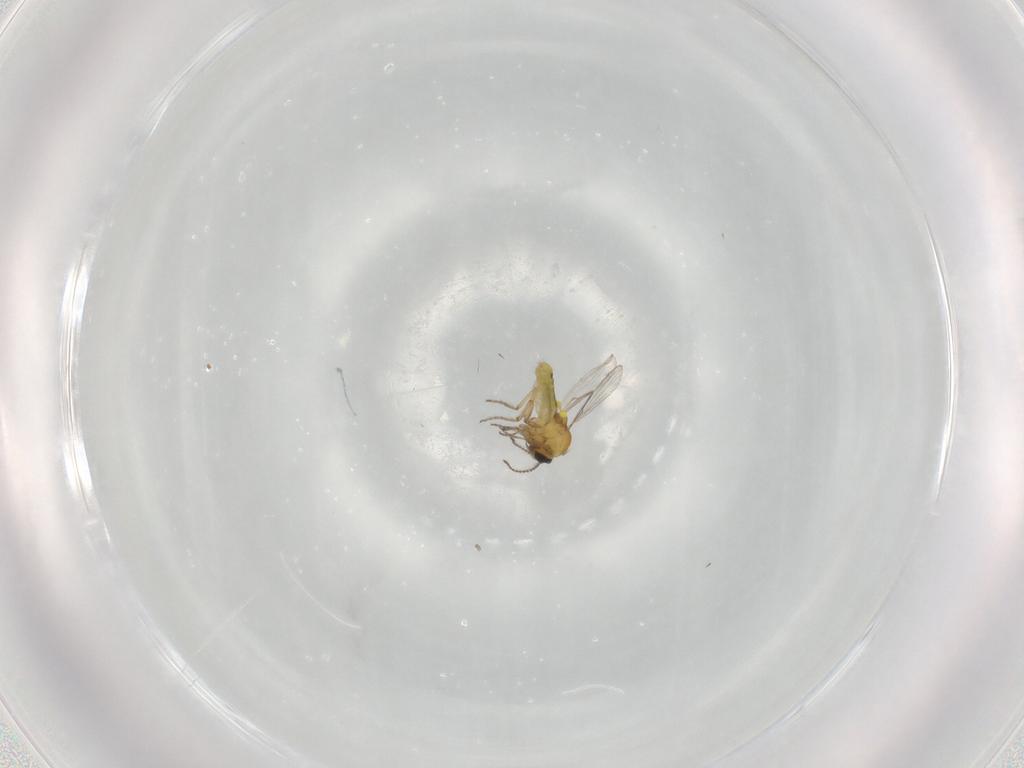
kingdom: Animalia
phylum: Arthropoda
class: Insecta
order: Diptera
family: Ceratopogonidae
